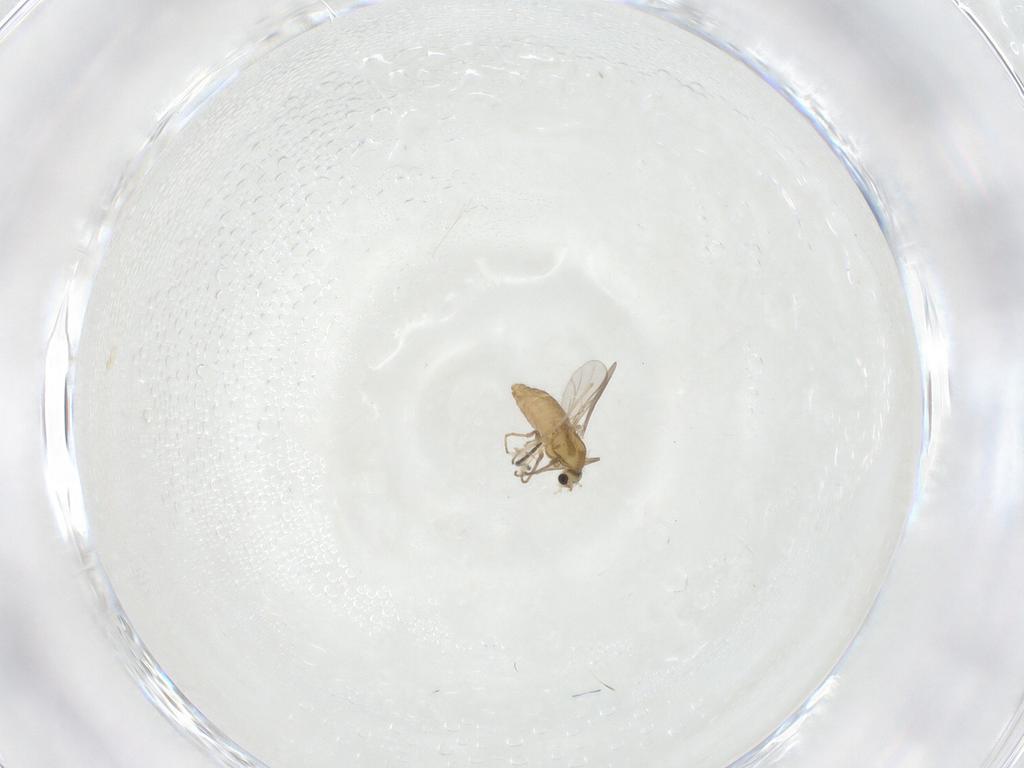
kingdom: Animalia
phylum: Arthropoda
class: Insecta
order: Diptera
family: Chironomidae
